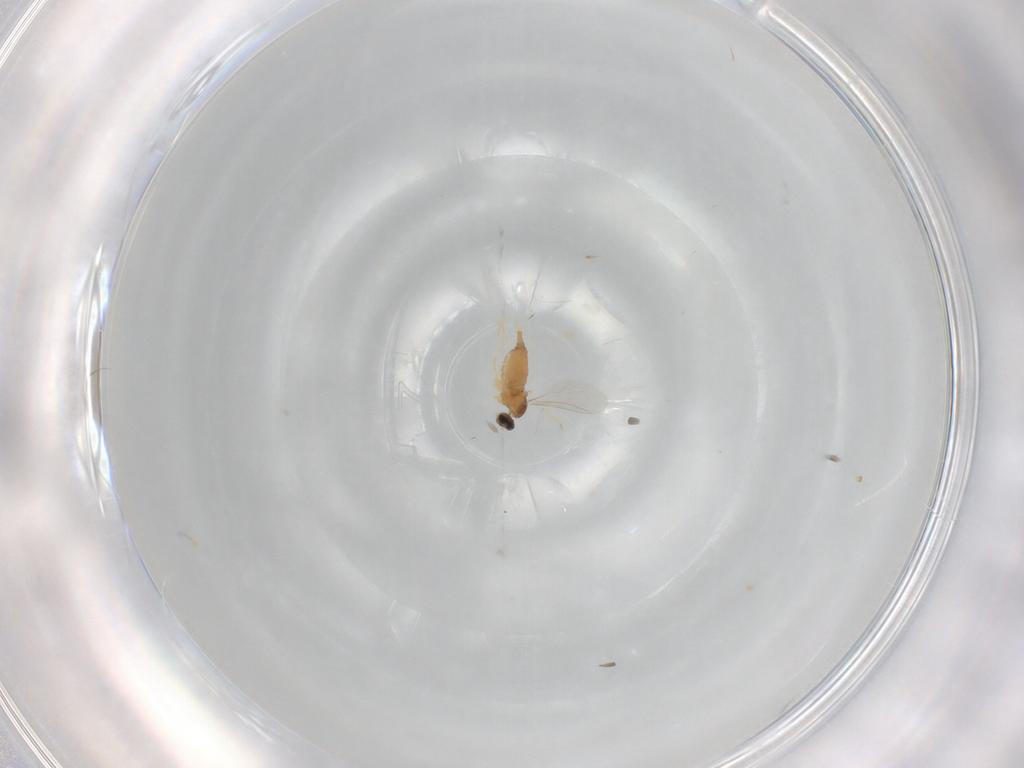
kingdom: Animalia
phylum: Arthropoda
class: Insecta
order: Diptera
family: Cecidomyiidae
